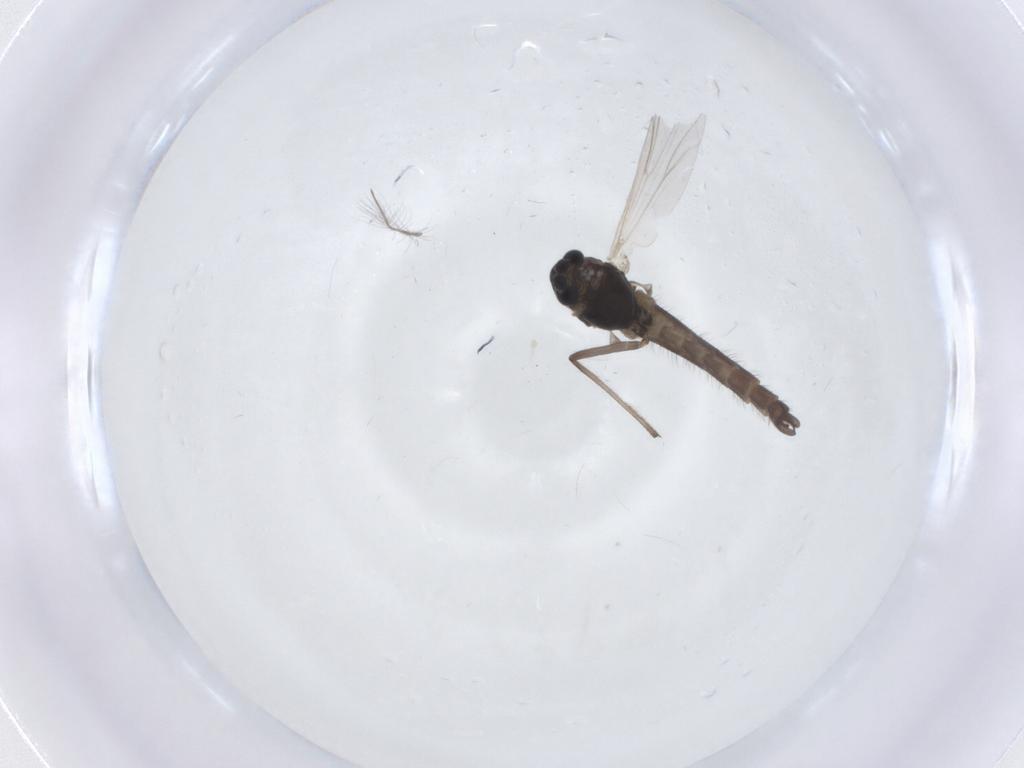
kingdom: Animalia
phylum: Arthropoda
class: Insecta
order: Diptera
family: Chironomidae
